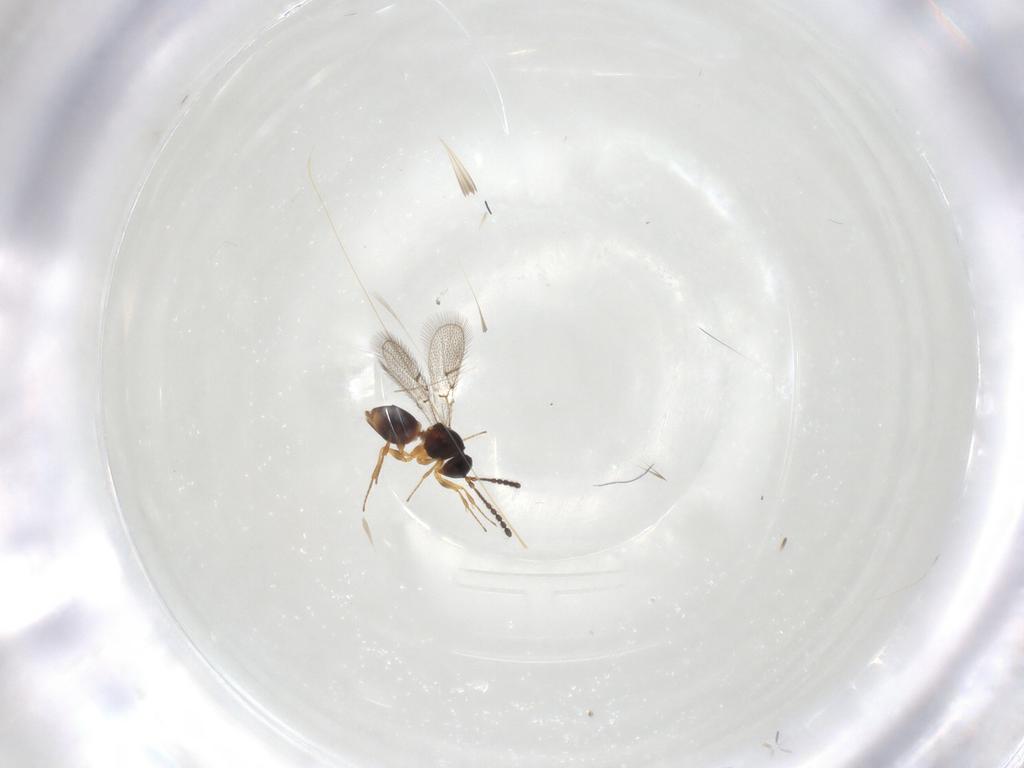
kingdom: Animalia
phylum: Arthropoda
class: Insecta
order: Hymenoptera
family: Figitidae
